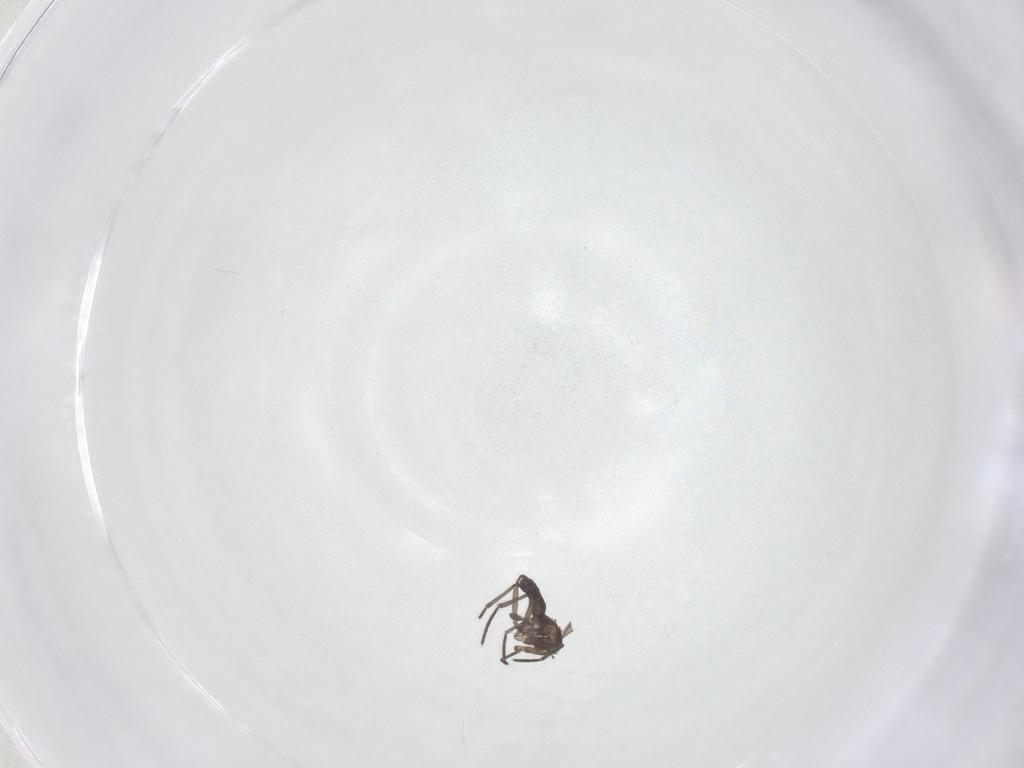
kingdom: Animalia
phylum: Arthropoda
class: Insecta
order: Diptera
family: Sciaridae
